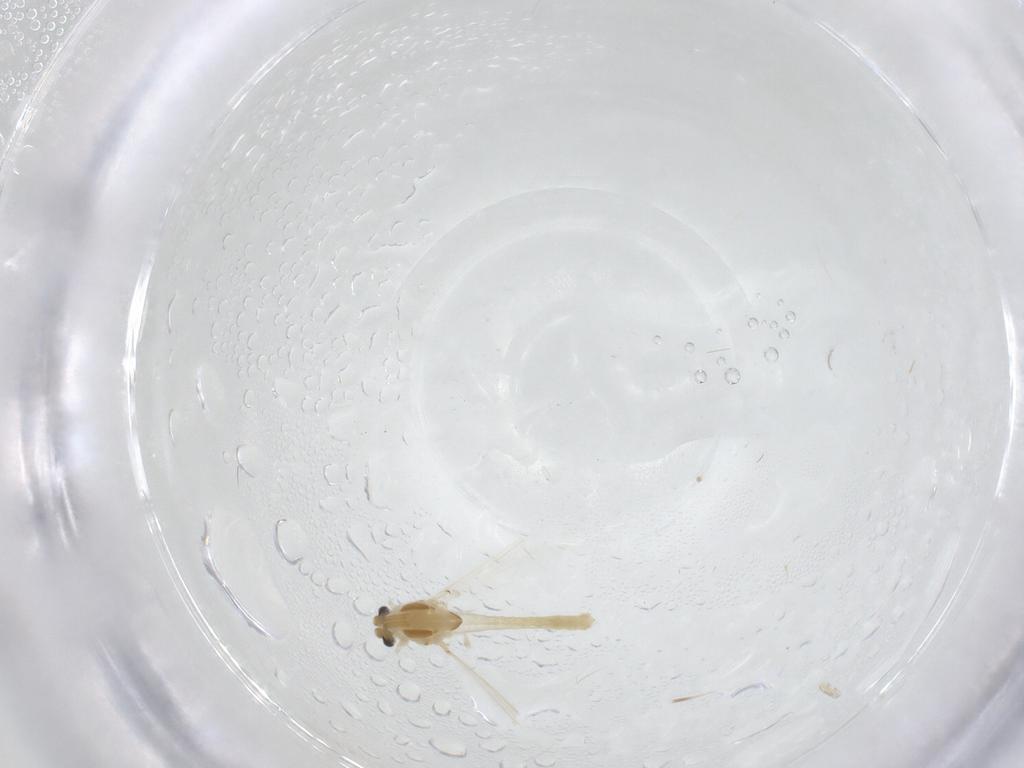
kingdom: Animalia
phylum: Arthropoda
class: Insecta
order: Diptera
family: Chironomidae
